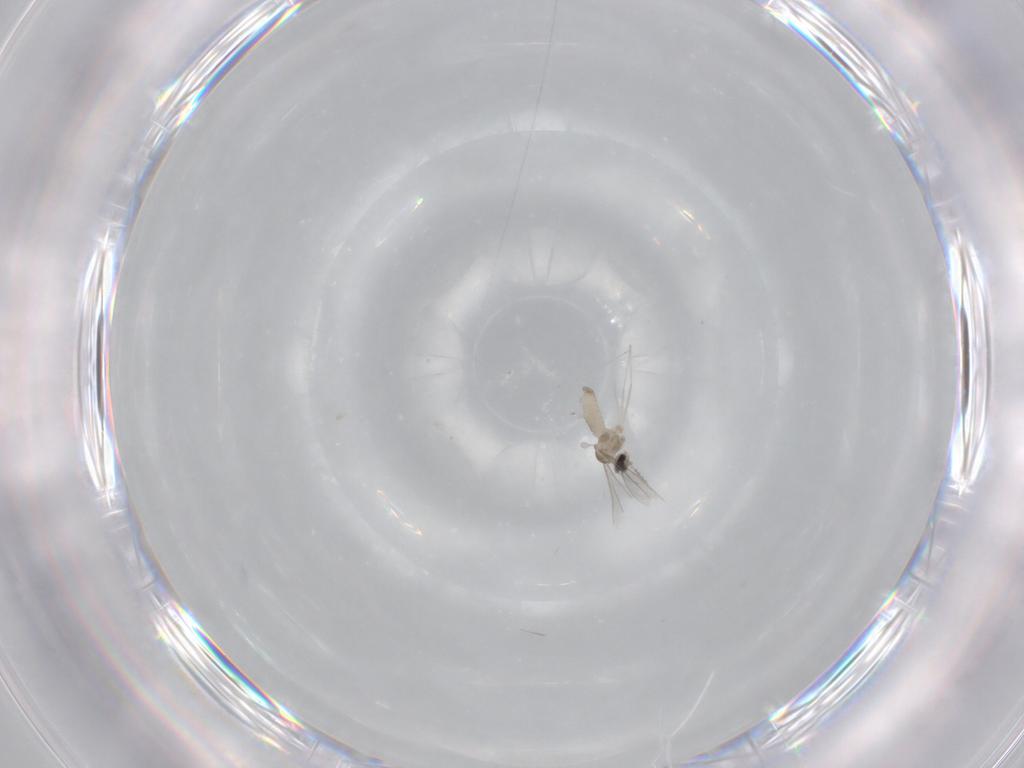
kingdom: Animalia
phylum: Arthropoda
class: Insecta
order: Diptera
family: Cecidomyiidae
